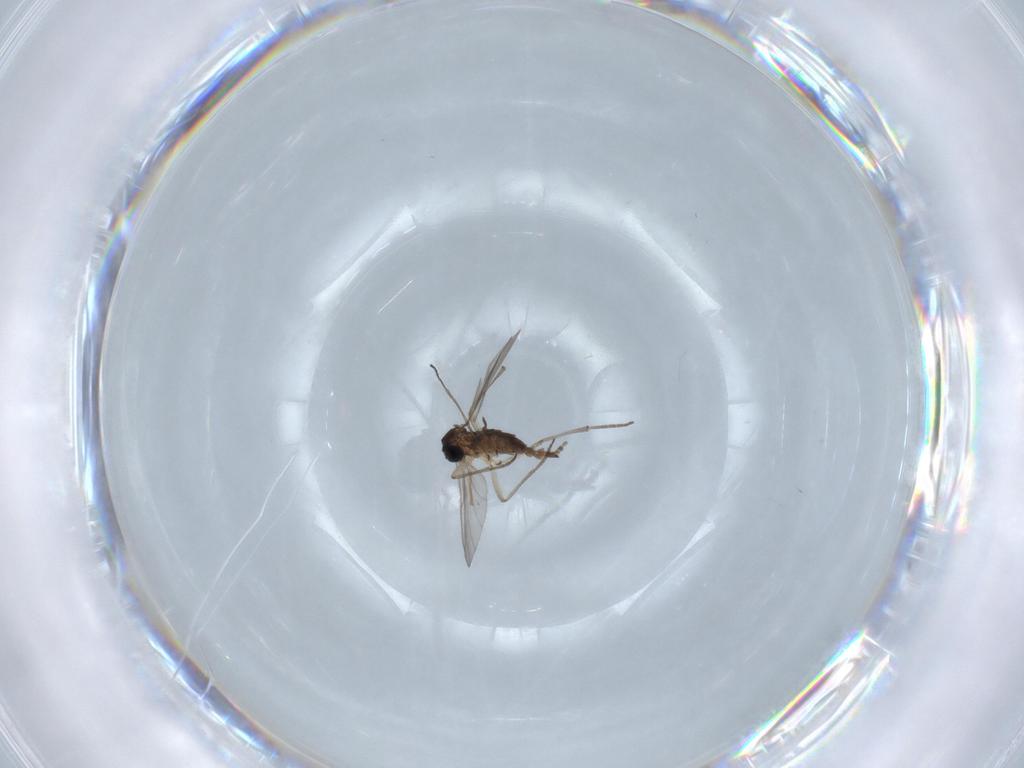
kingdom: Animalia
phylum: Arthropoda
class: Insecta
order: Diptera
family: Sciaridae
